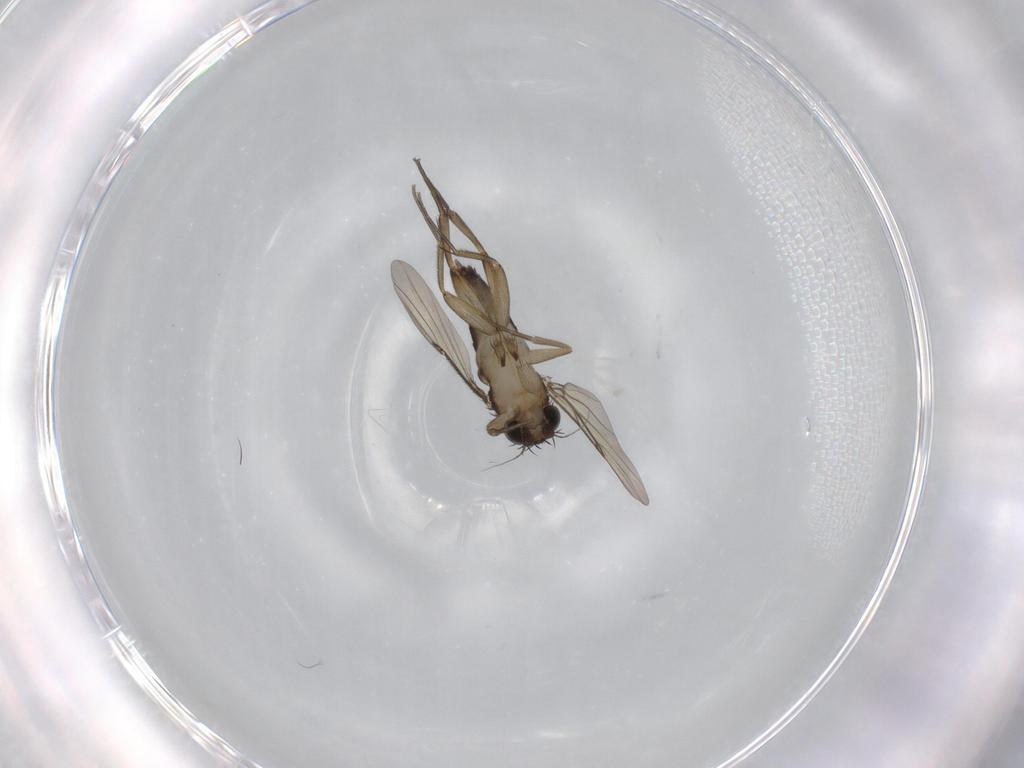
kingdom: Animalia
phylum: Arthropoda
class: Insecta
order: Diptera
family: Phoridae
